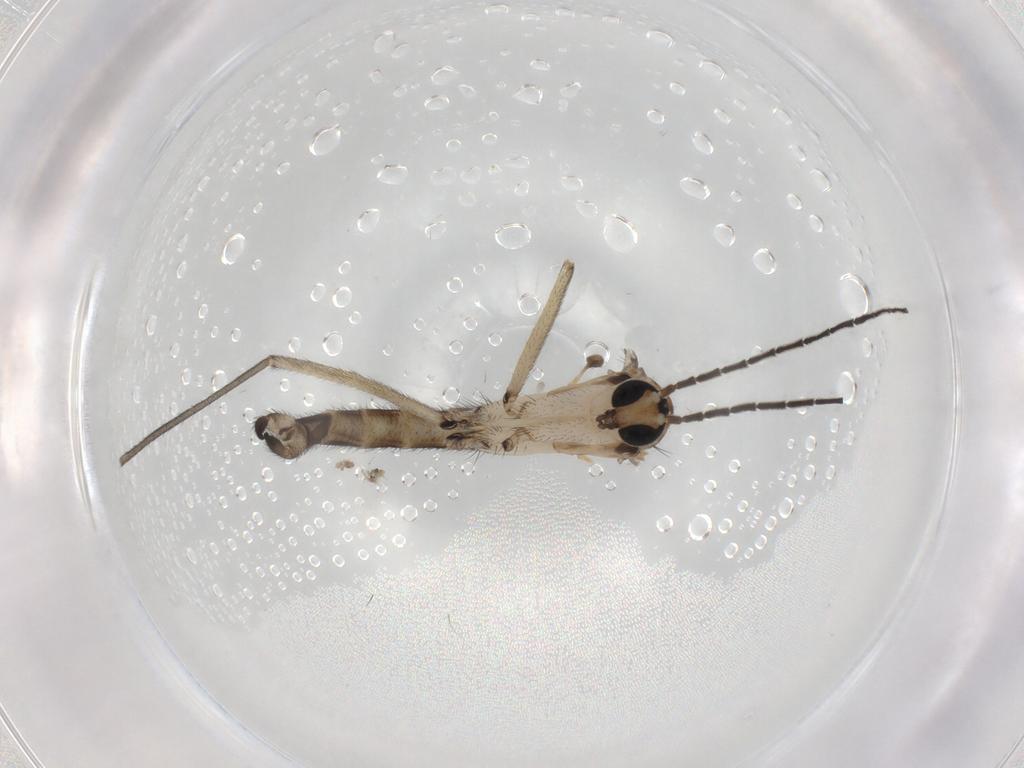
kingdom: Animalia
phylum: Arthropoda
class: Insecta
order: Diptera
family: Sciaridae
